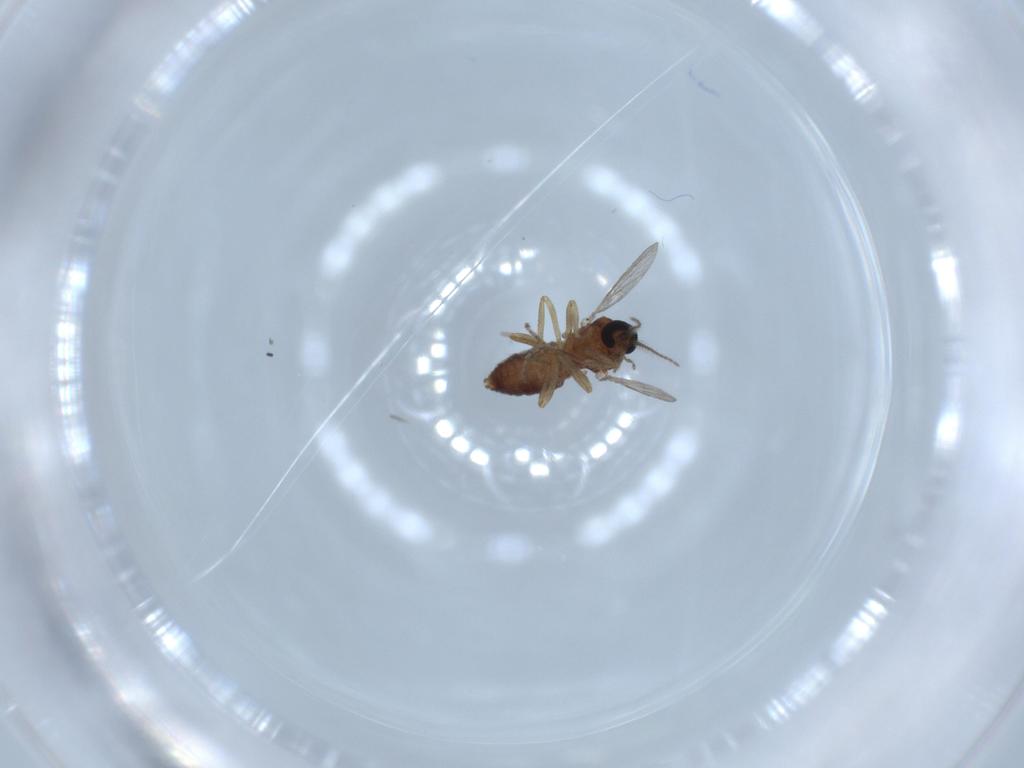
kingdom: Animalia
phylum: Arthropoda
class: Insecta
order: Diptera
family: Ceratopogonidae
